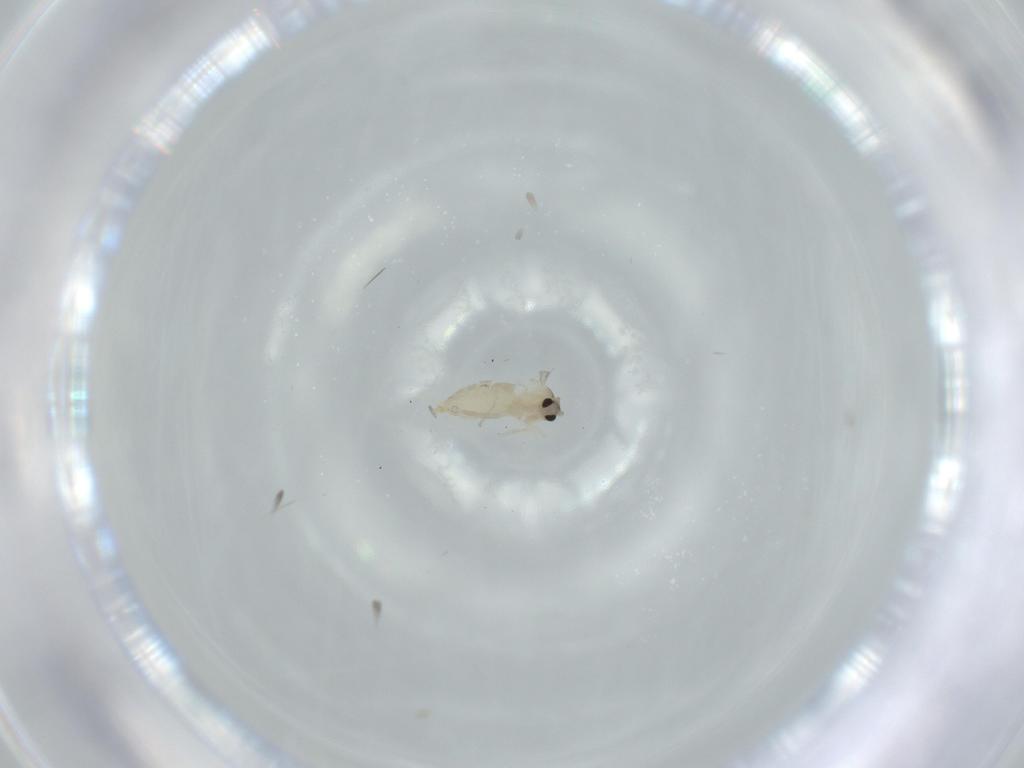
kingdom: Animalia
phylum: Arthropoda
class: Insecta
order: Diptera
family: Cecidomyiidae
